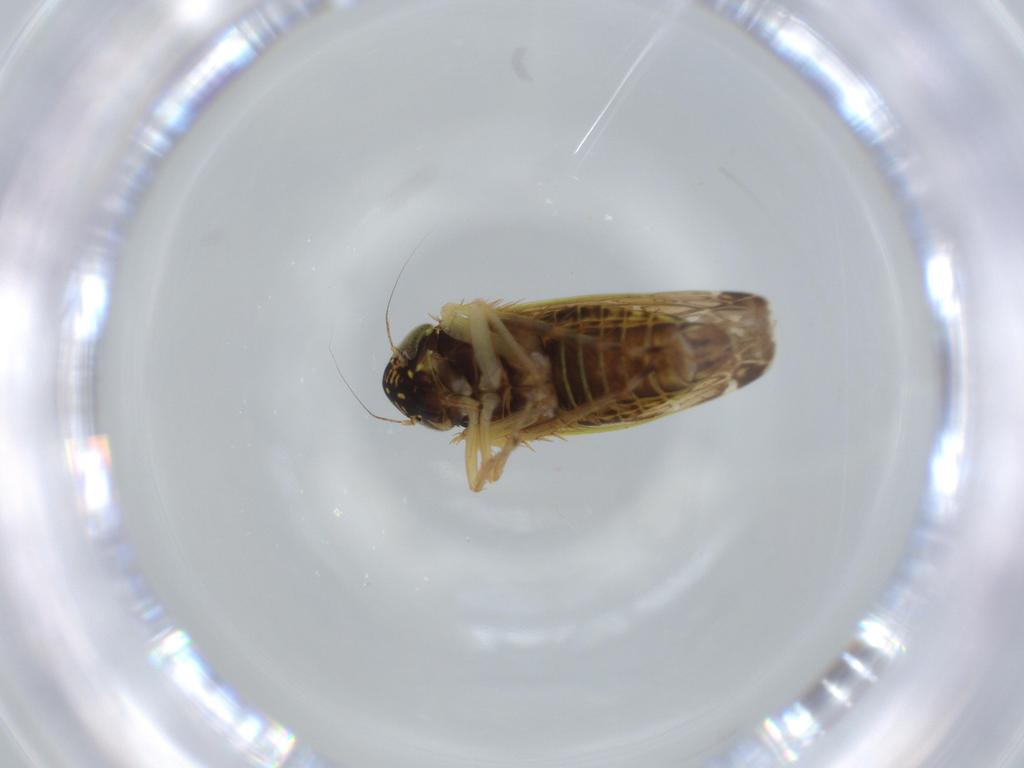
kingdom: Animalia
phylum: Arthropoda
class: Insecta
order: Hemiptera
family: Cicadellidae
